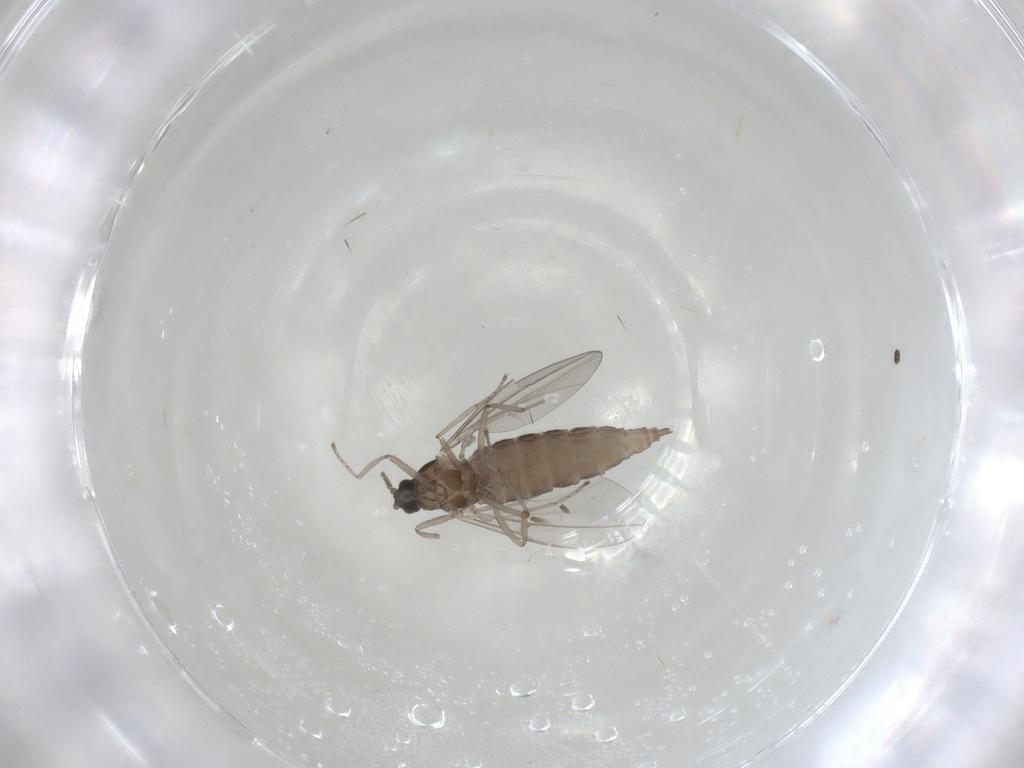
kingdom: Animalia
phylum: Arthropoda
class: Insecta
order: Diptera
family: Cecidomyiidae
